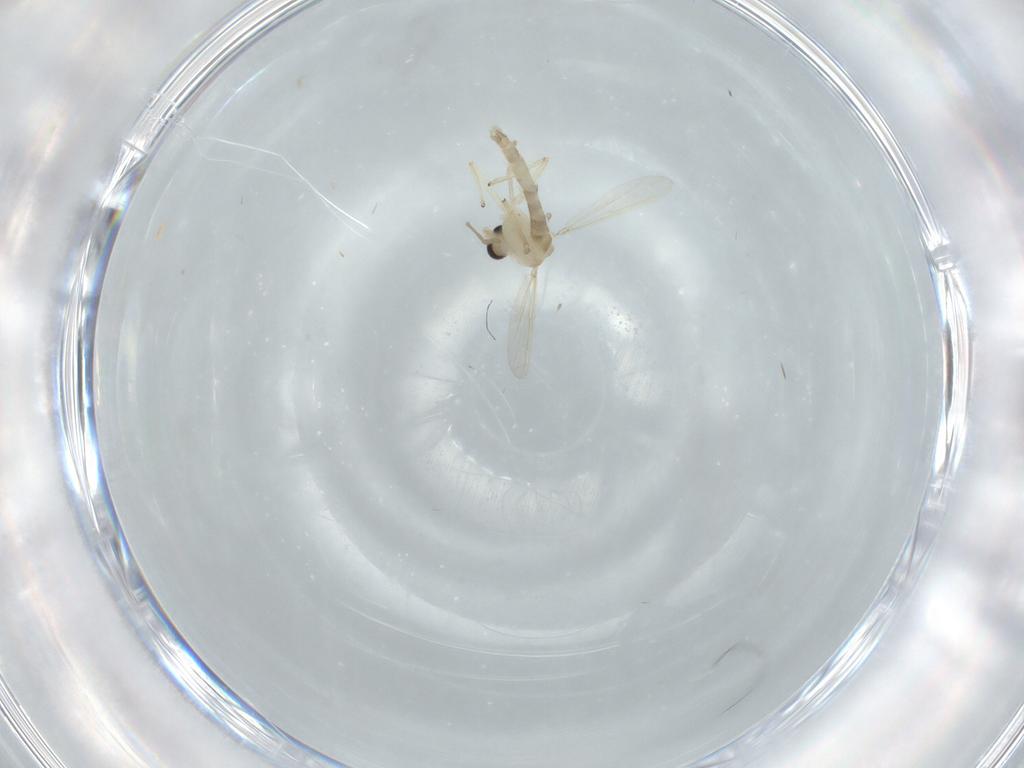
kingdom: Animalia
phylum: Arthropoda
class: Insecta
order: Diptera
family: Chironomidae
